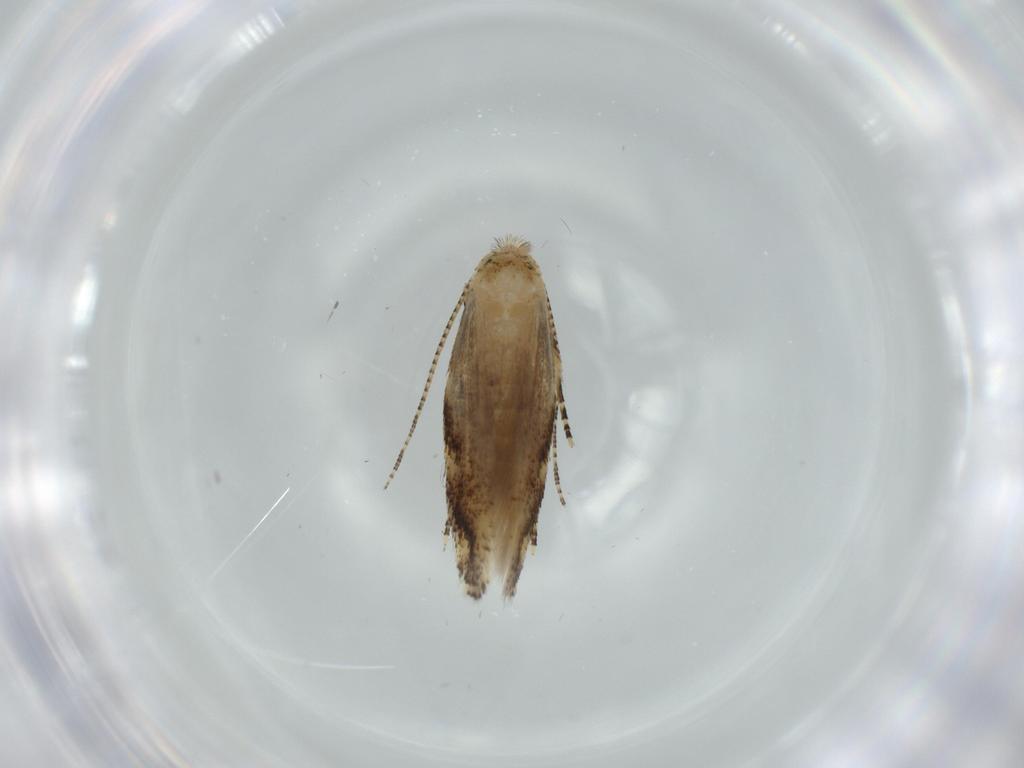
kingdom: Animalia
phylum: Arthropoda
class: Insecta
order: Lepidoptera
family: Bucculatricidae
